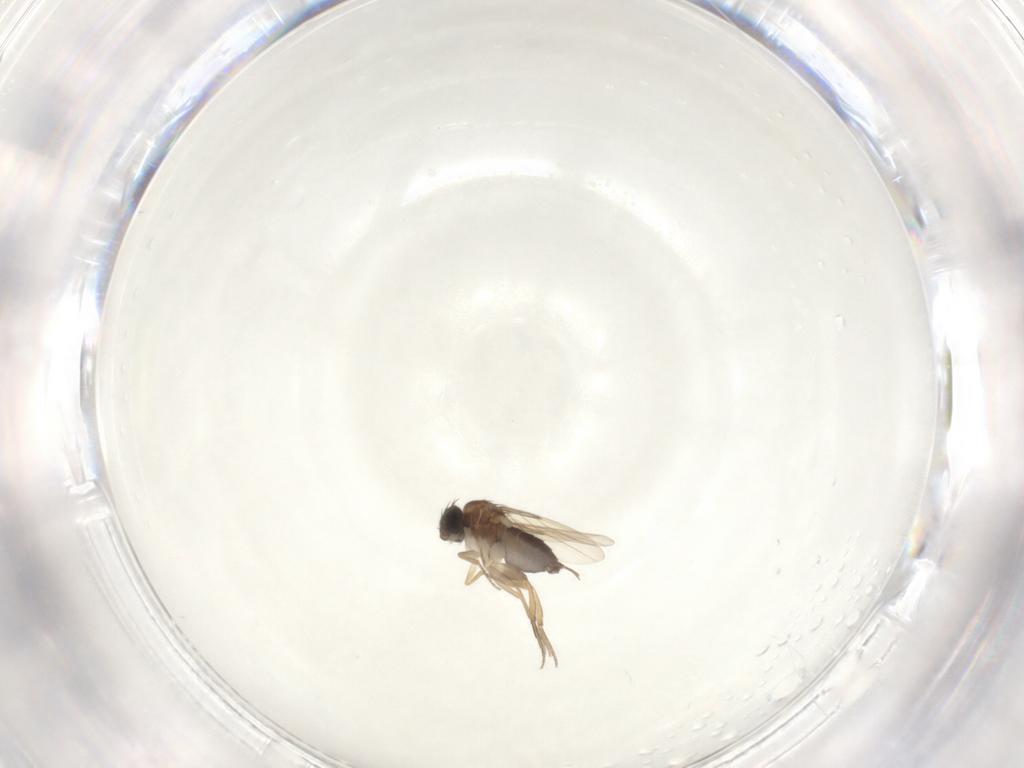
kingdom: Animalia
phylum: Arthropoda
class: Insecta
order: Diptera
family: Phoridae
